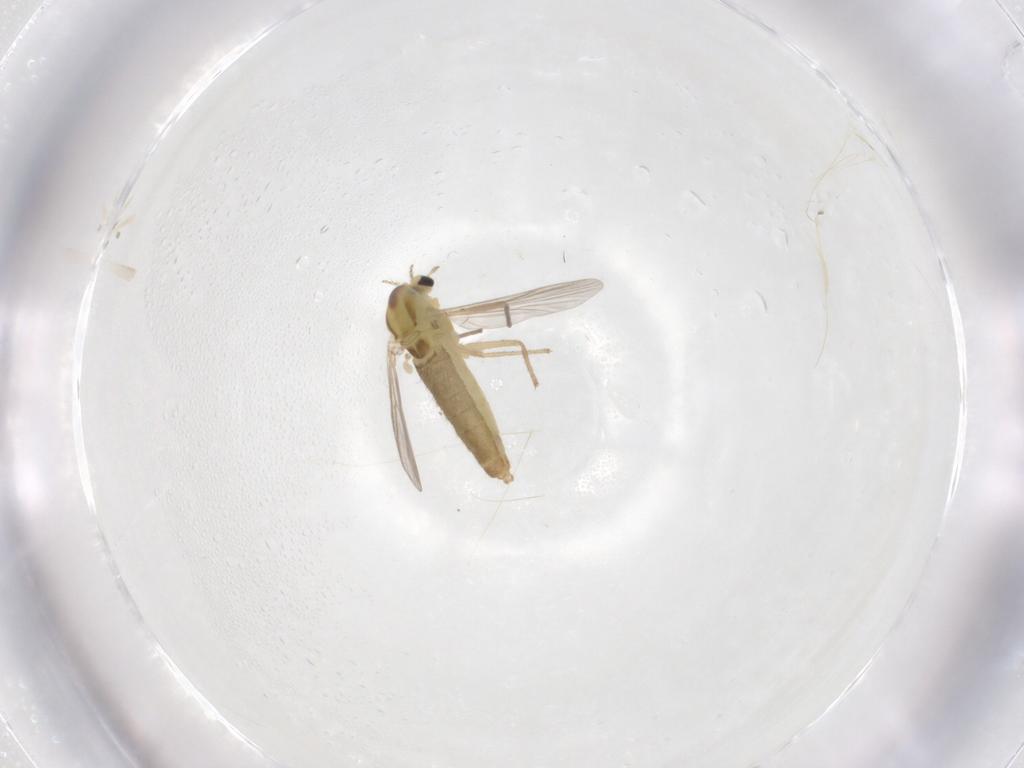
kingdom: Animalia
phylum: Arthropoda
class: Insecta
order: Diptera
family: Chironomidae
